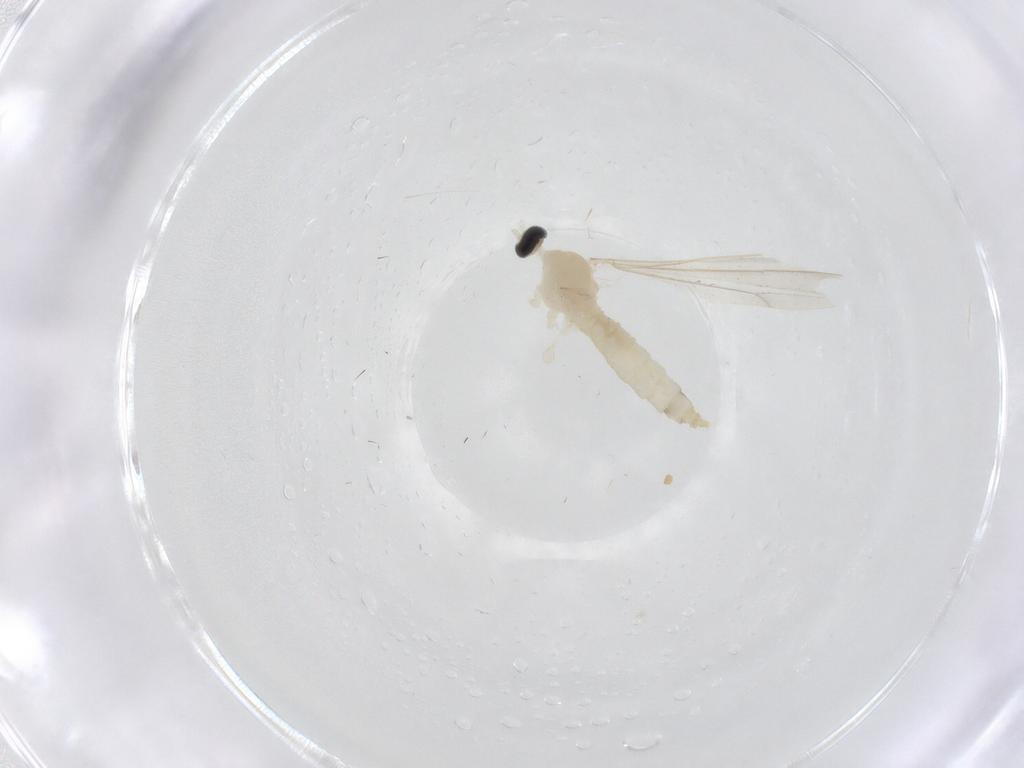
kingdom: Animalia
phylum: Arthropoda
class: Insecta
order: Diptera
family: Cecidomyiidae
